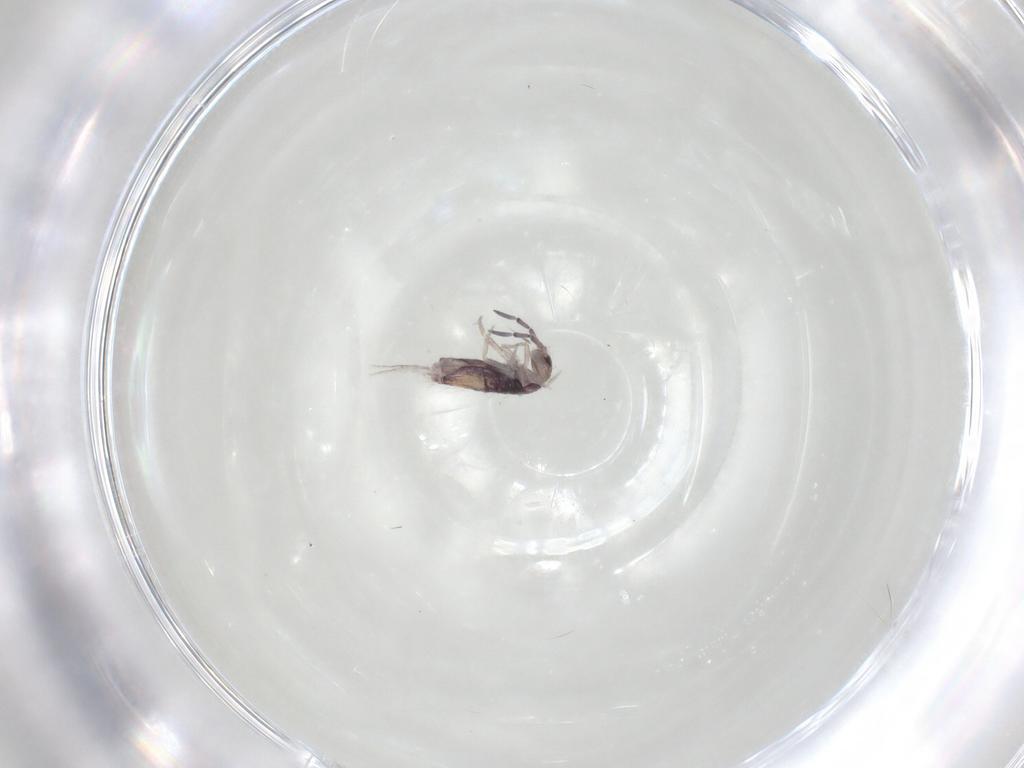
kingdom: Animalia
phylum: Arthropoda
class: Collembola
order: Entomobryomorpha
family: Entomobryidae
